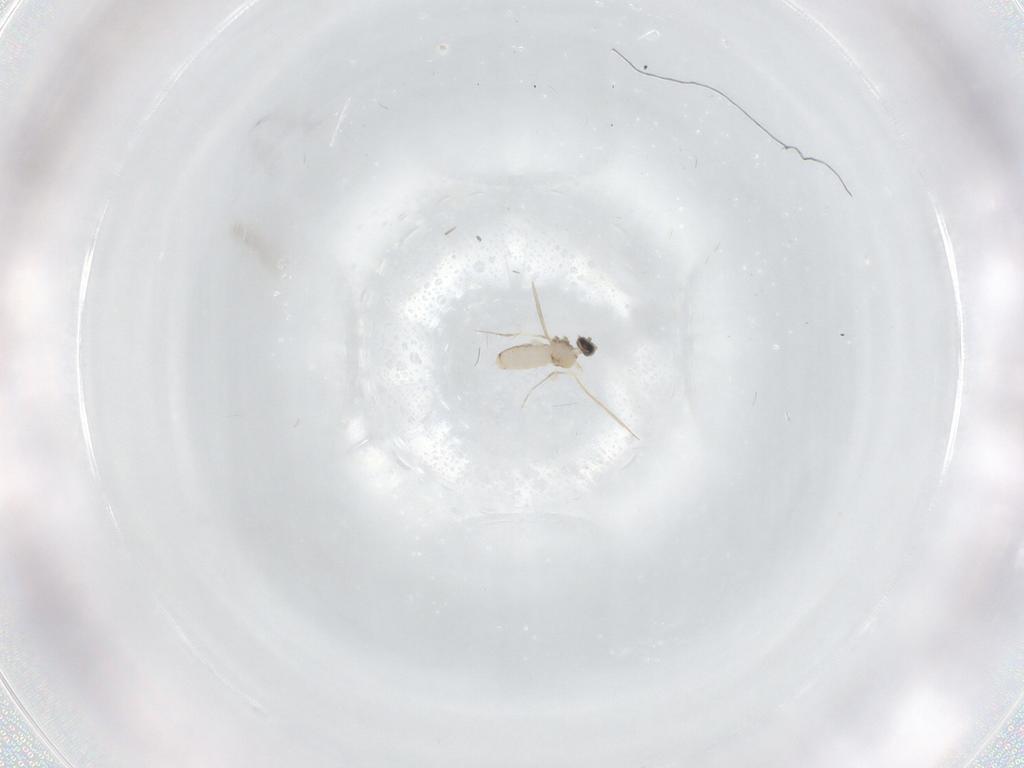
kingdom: Animalia
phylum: Arthropoda
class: Insecta
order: Diptera
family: Cecidomyiidae
